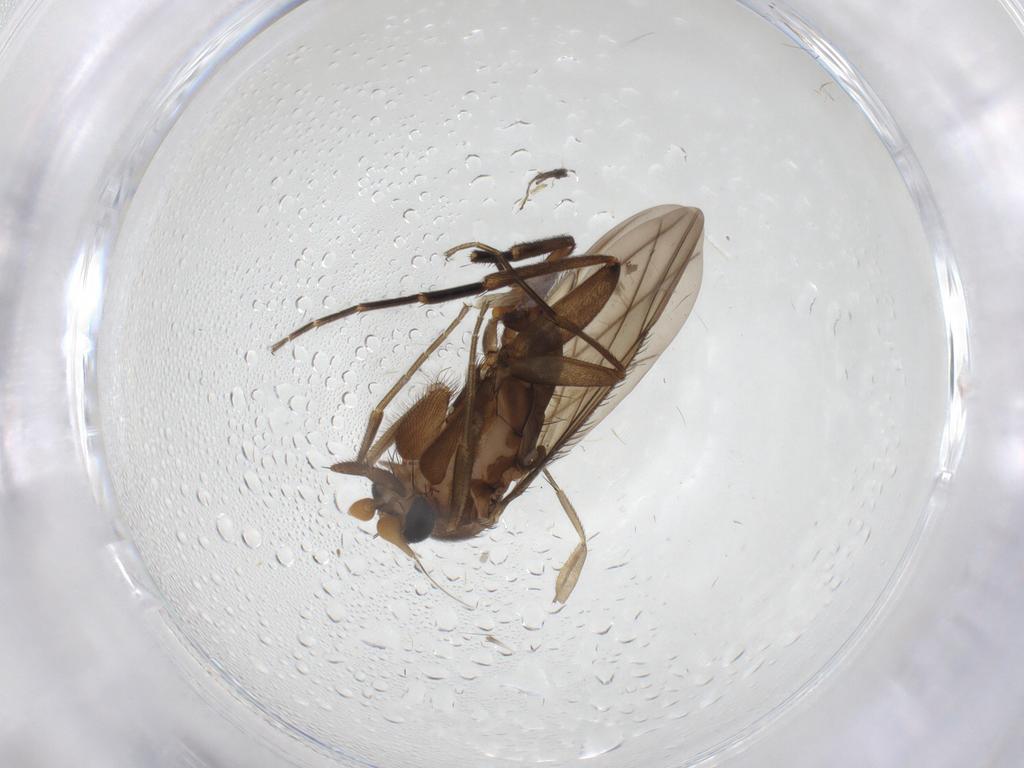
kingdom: Animalia
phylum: Arthropoda
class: Insecta
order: Diptera
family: Phoridae
